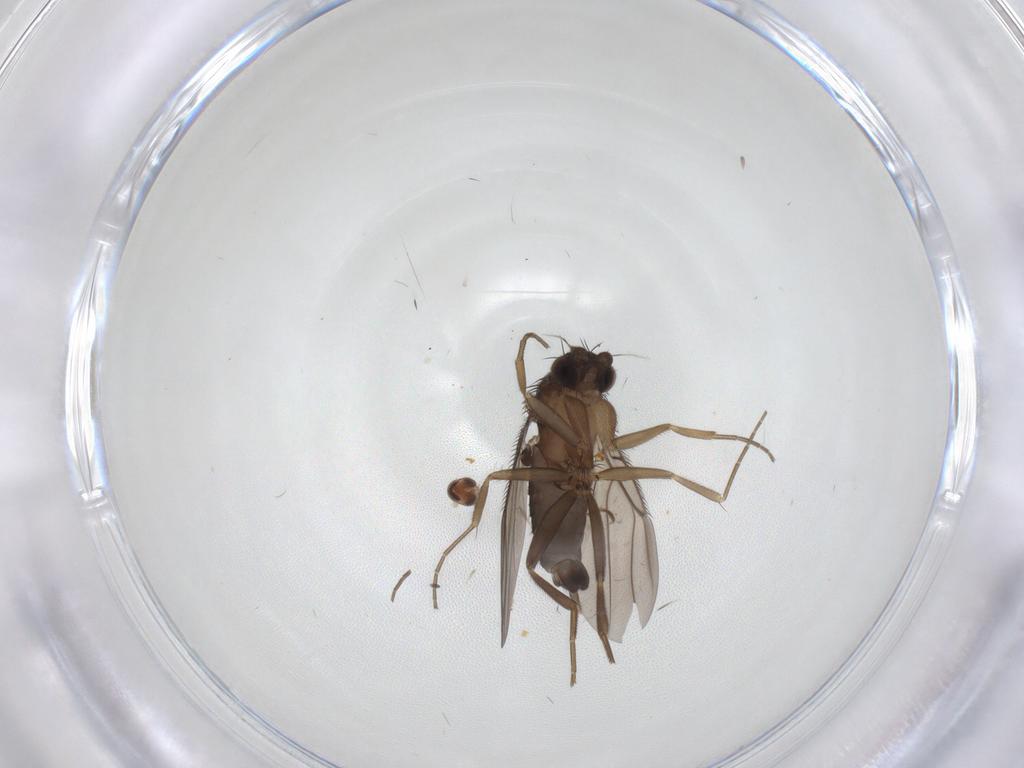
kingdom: Animalia
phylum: Arthropoda
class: Insecta
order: Diptera
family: Cecidomyiidae
